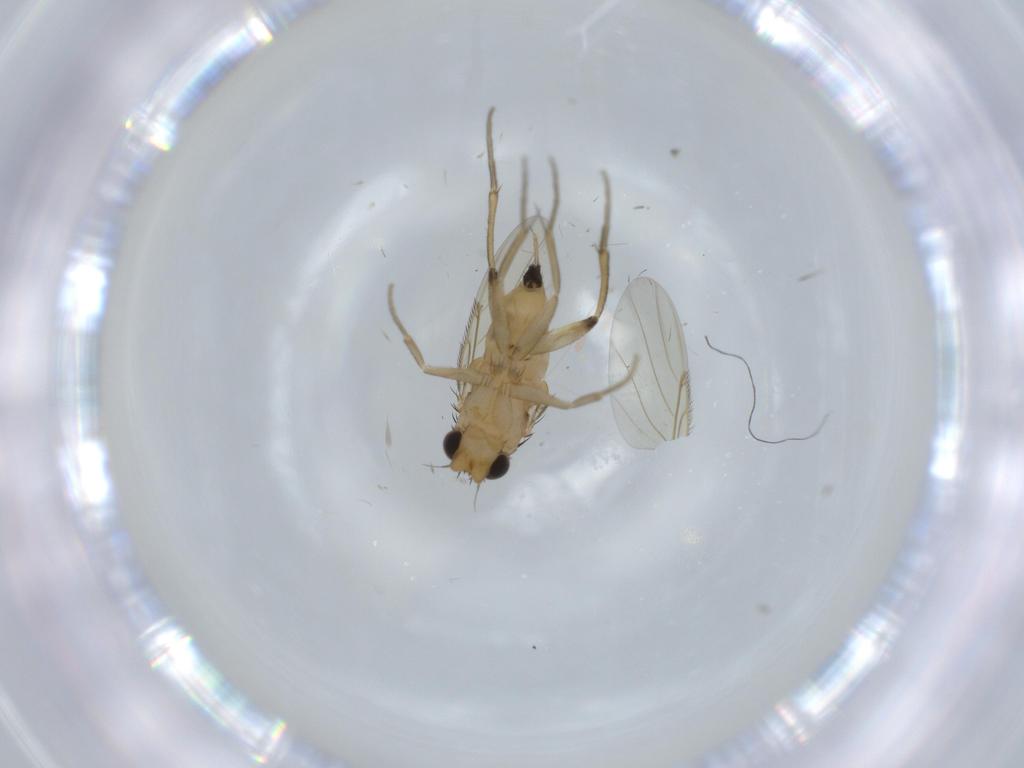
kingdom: Animalia
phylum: Arthropoda
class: Insecta
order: Diptera
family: Phoridae
